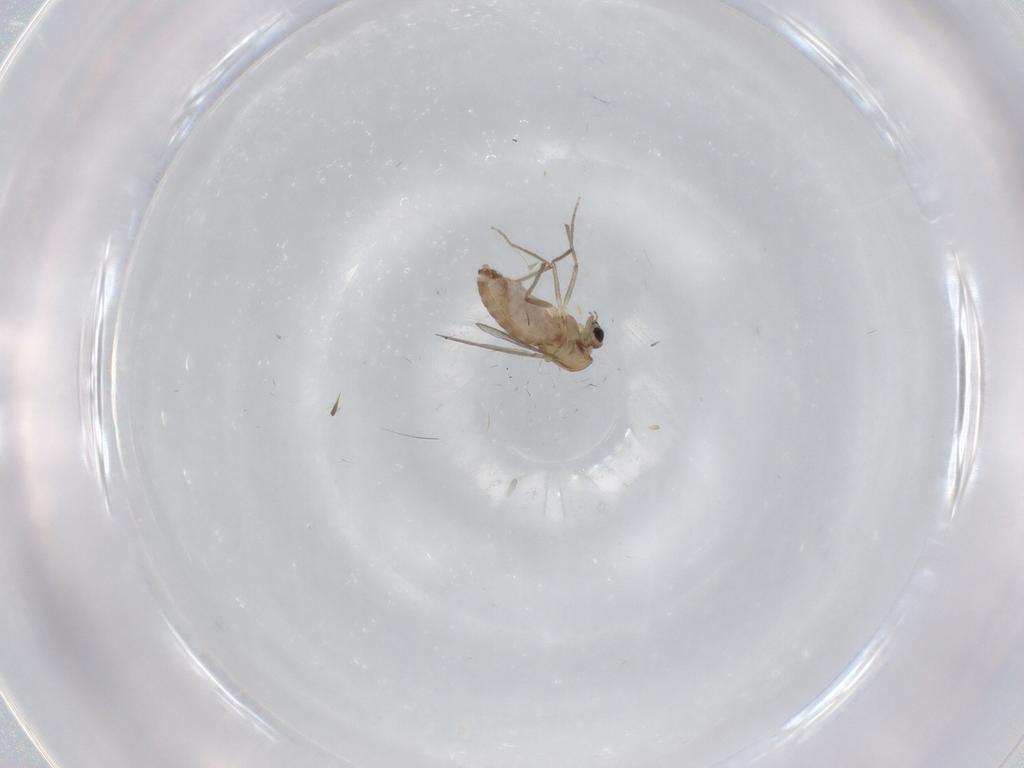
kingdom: Animalia
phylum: Arthropoda
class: Insecta
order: Diptera
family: Chironomidae
